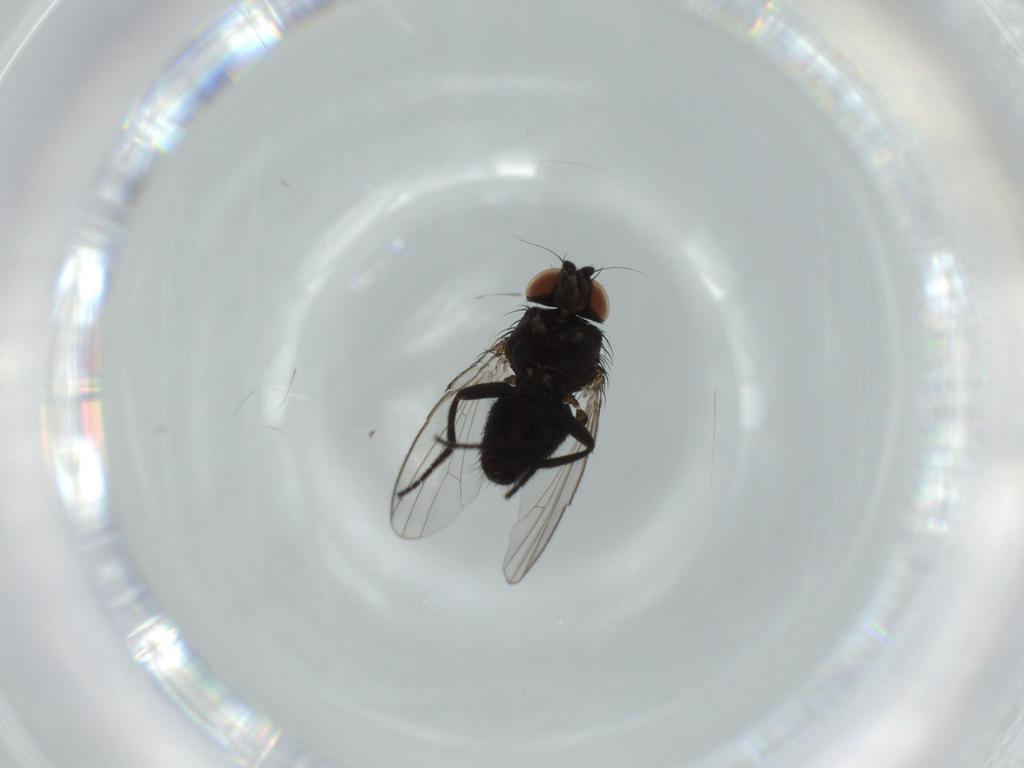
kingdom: Animalia
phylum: Arthropoda
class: Insecta
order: Diptera
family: Milichiidae
